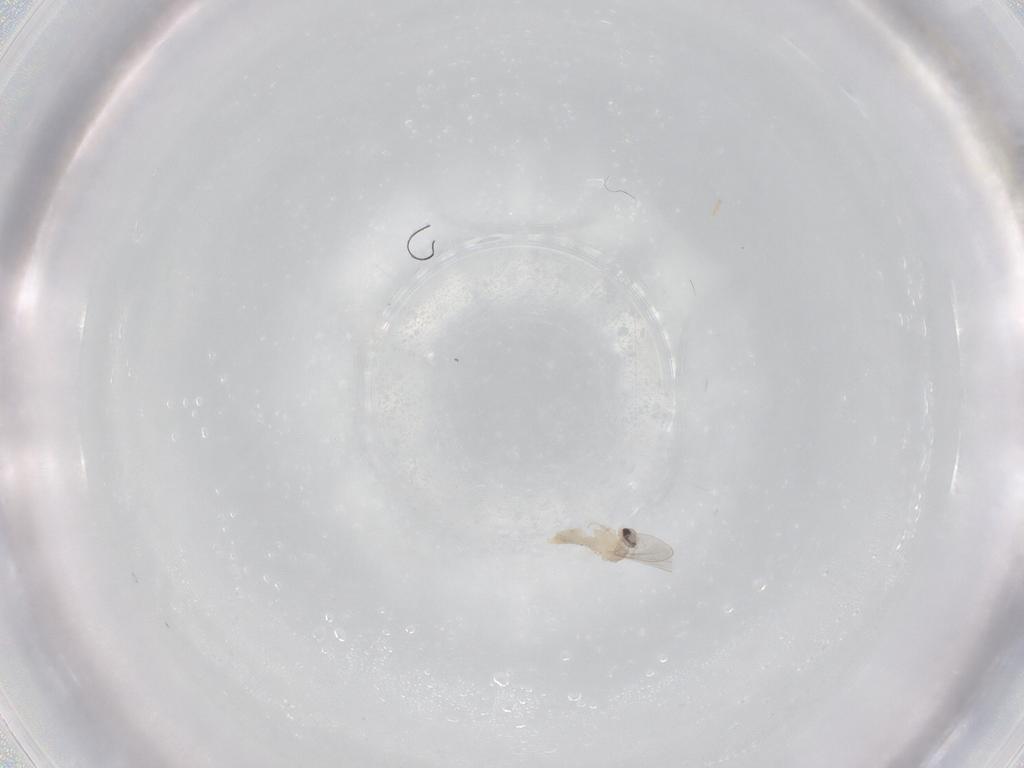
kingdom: Animalia
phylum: Arthropoda
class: Insecta
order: Diptera
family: Cecidomyiidae
